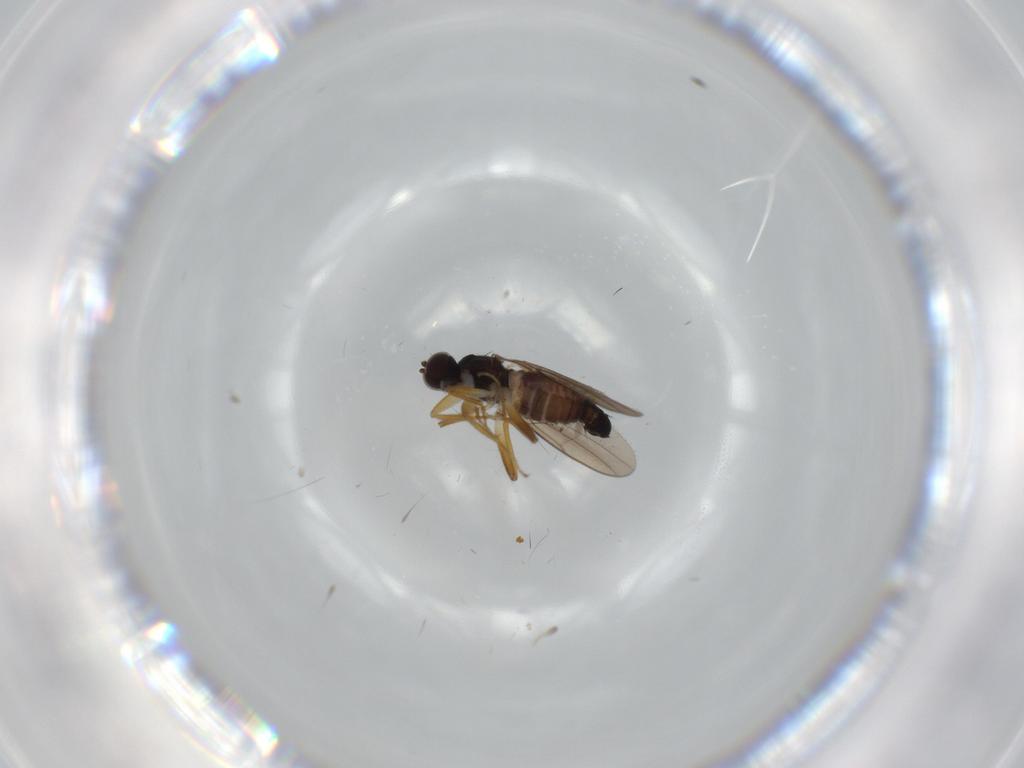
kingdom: Animalia
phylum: Arthropoda
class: Insecta
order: Diptera
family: Hybotidae
